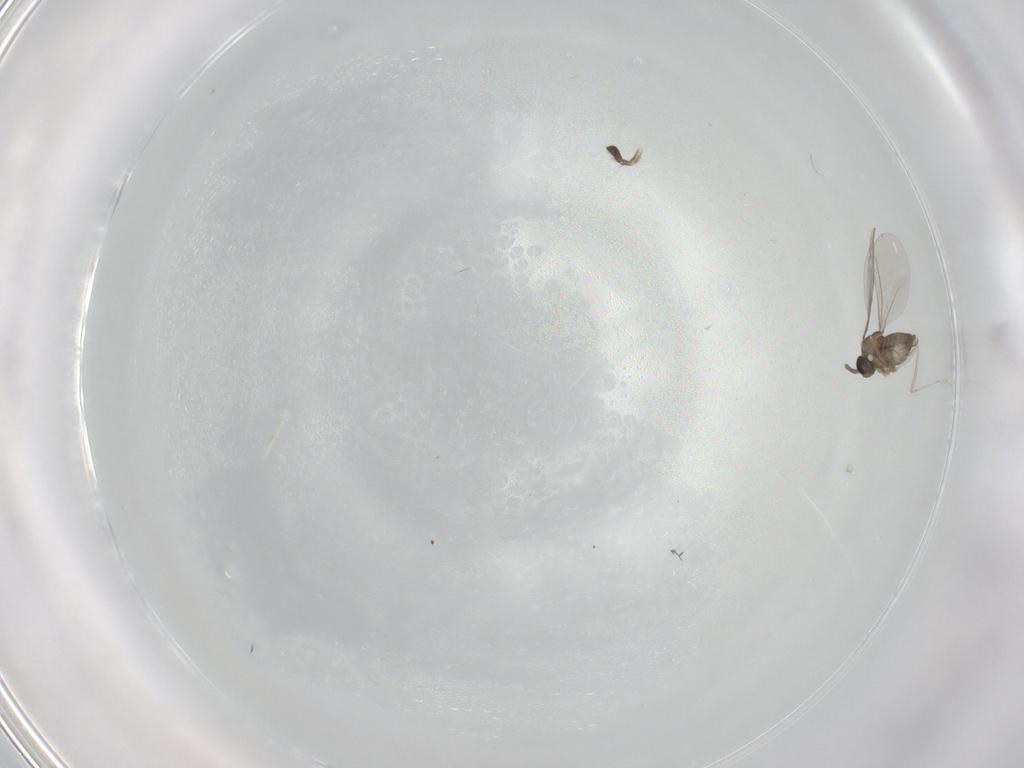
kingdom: Animalia
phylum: Arthropoda
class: Insecta
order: Diptera
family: Cecidomyiidae
